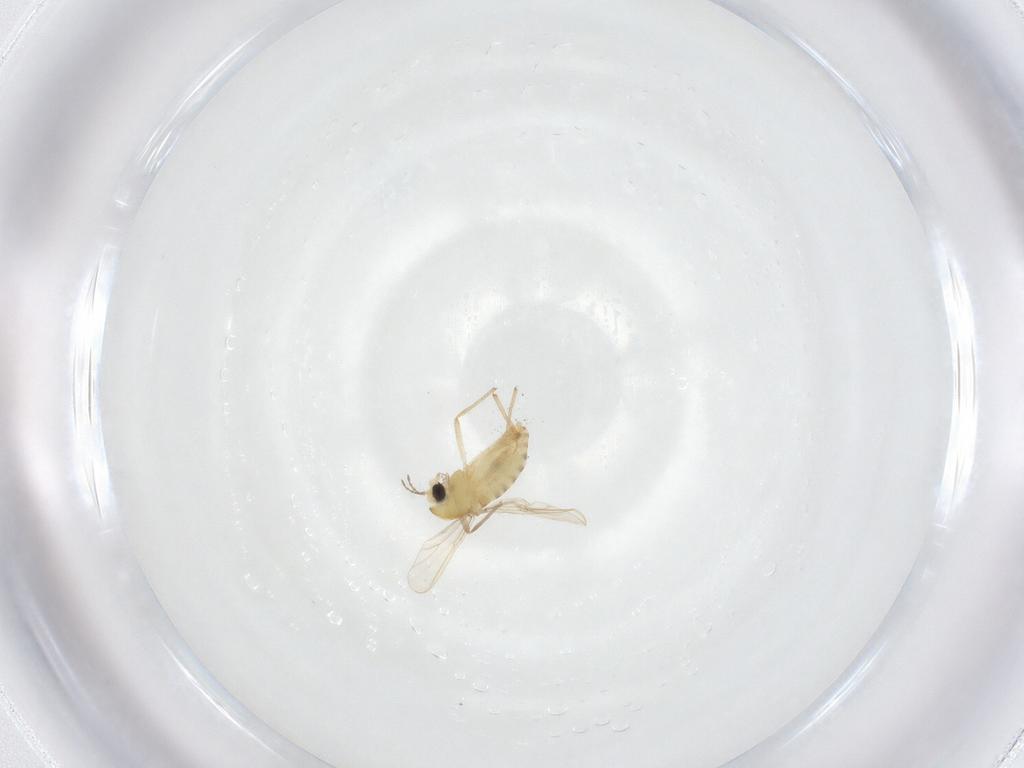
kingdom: Animalia
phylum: Arthropoda
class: Insecta
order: Diptera
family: Chironomidae
